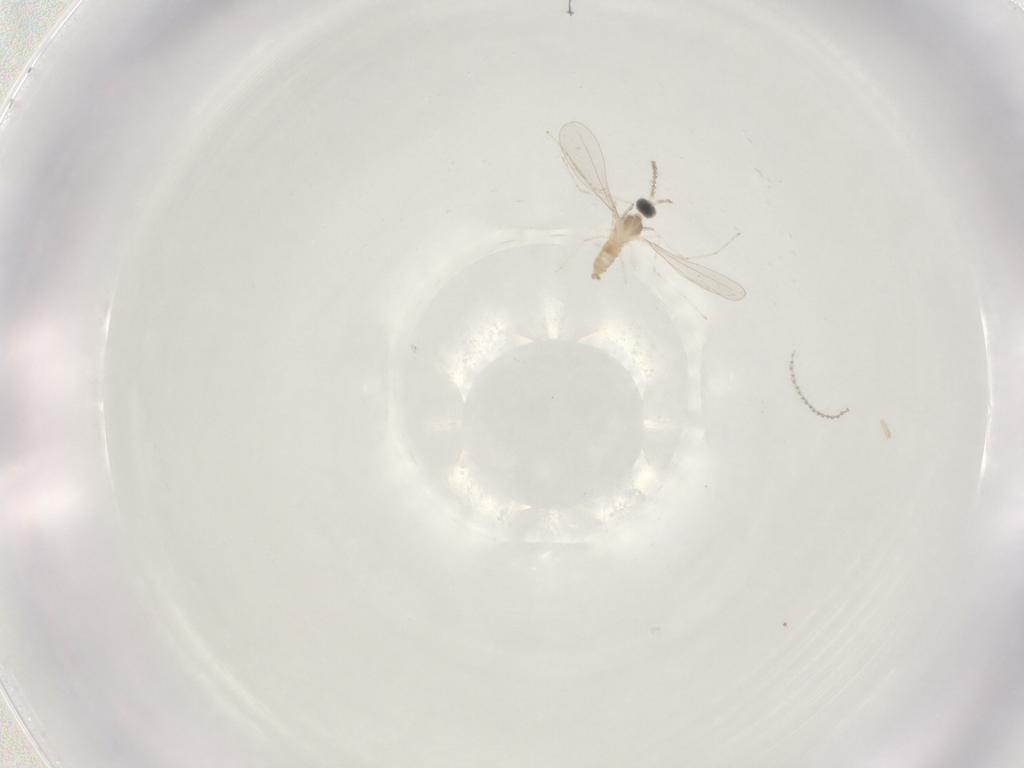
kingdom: Animalia
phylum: Arthropoda
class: Insecta
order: Diptera
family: Cecidomyiidae
